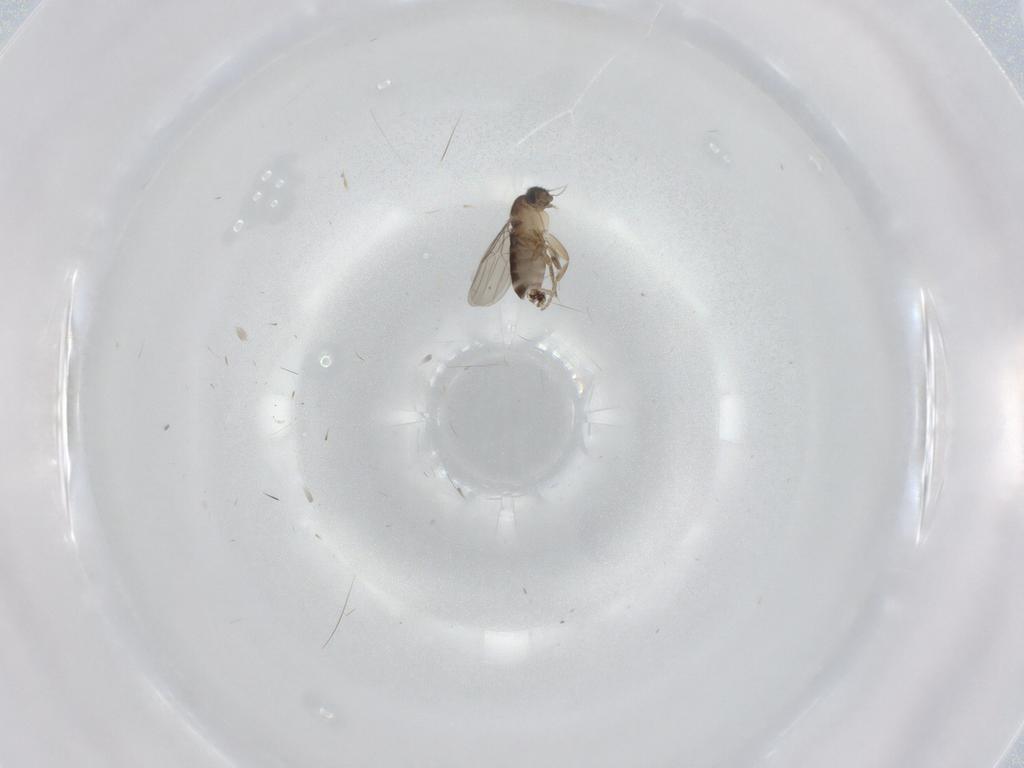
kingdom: Animalia
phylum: Arthropoda
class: Insecta
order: Diptera
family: Phoridae
